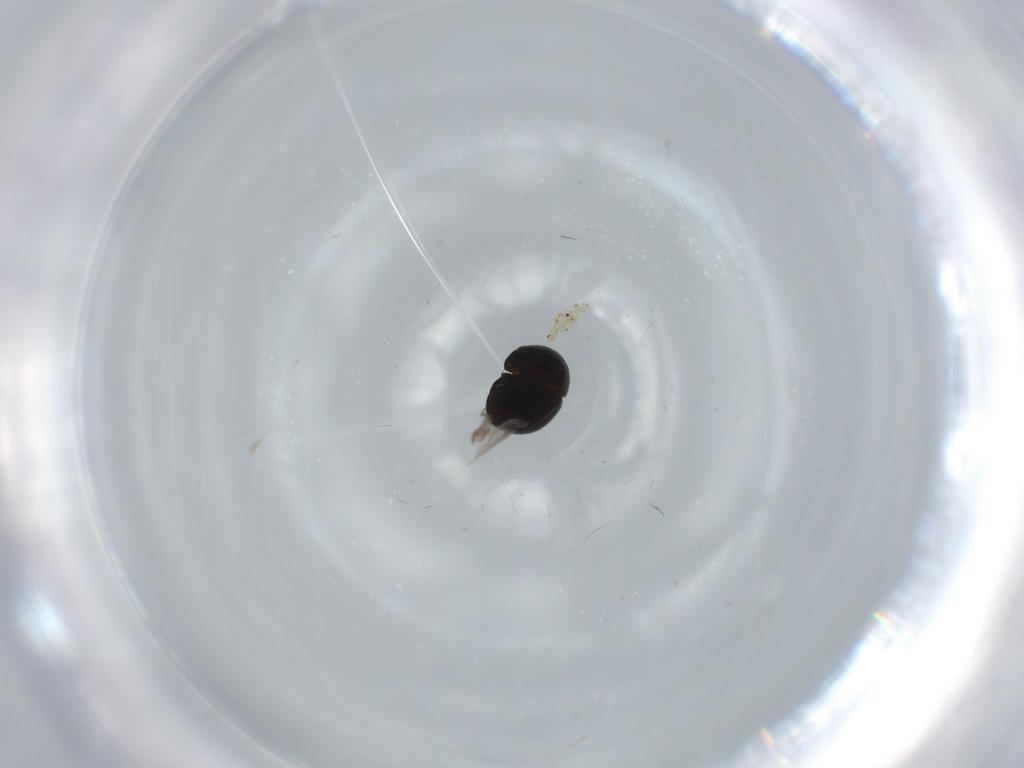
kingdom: Animalia
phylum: Arthropoda
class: Insecta
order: Coleoptera
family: Cybocephalidae
